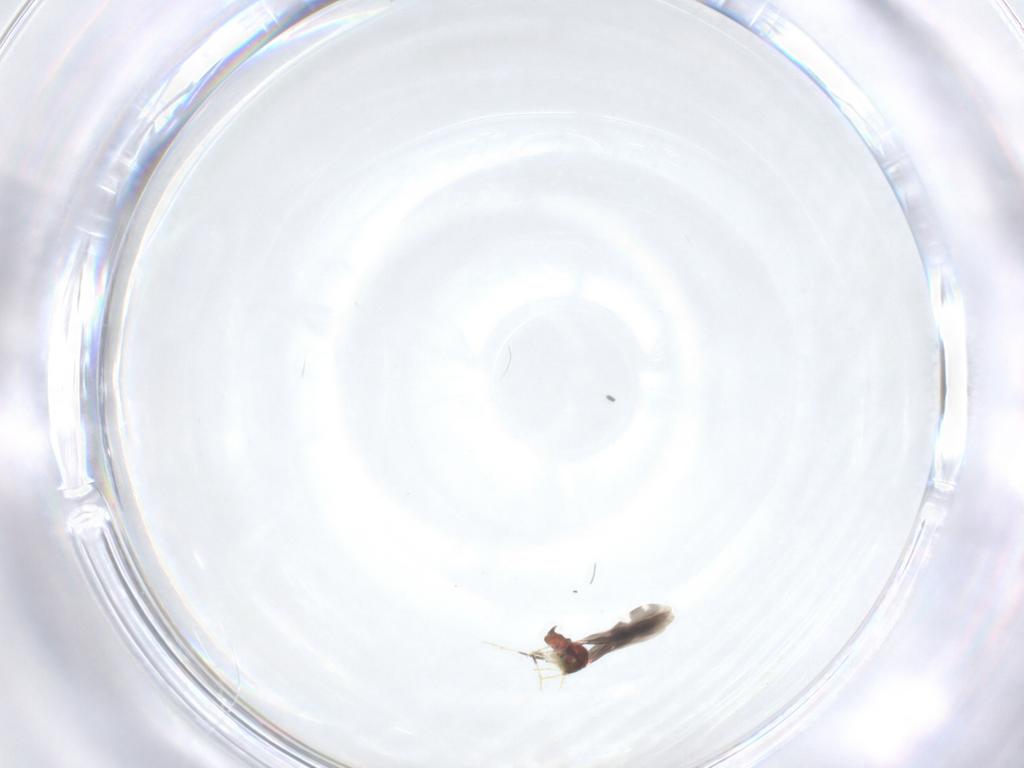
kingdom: Animalia
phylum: Arthropoda
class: Insecta
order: Hemiptera
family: Aleyrodidae
